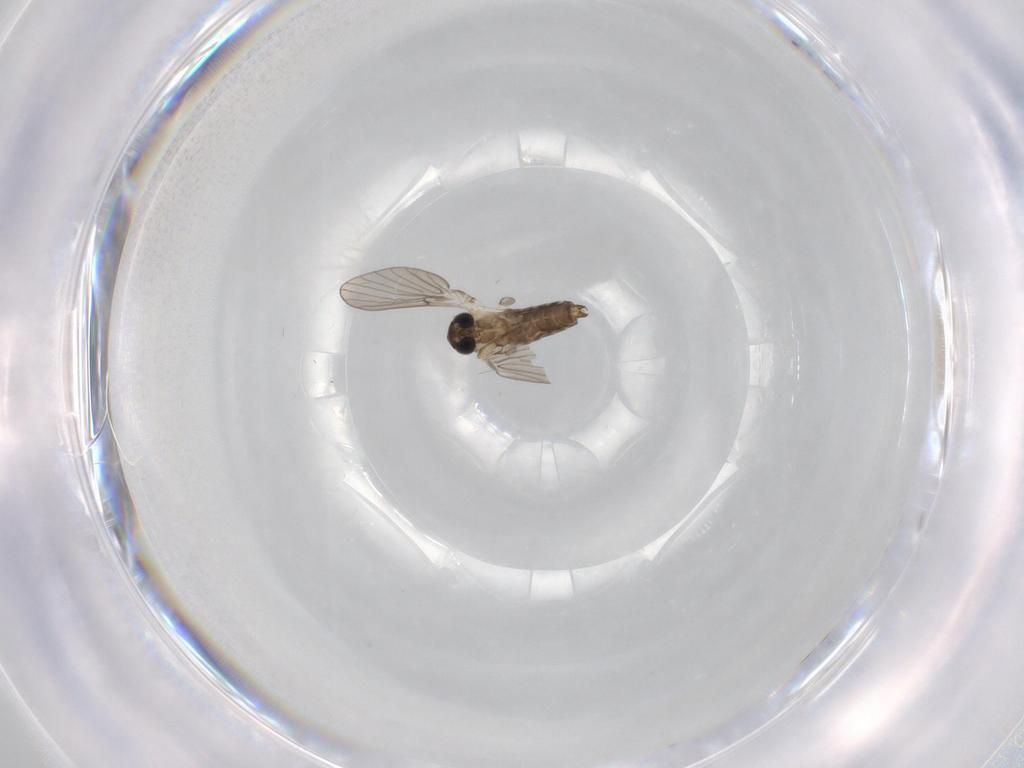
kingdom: Animalia
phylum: Arthropoda
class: Insecta
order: Diptera
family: Psychodidae
